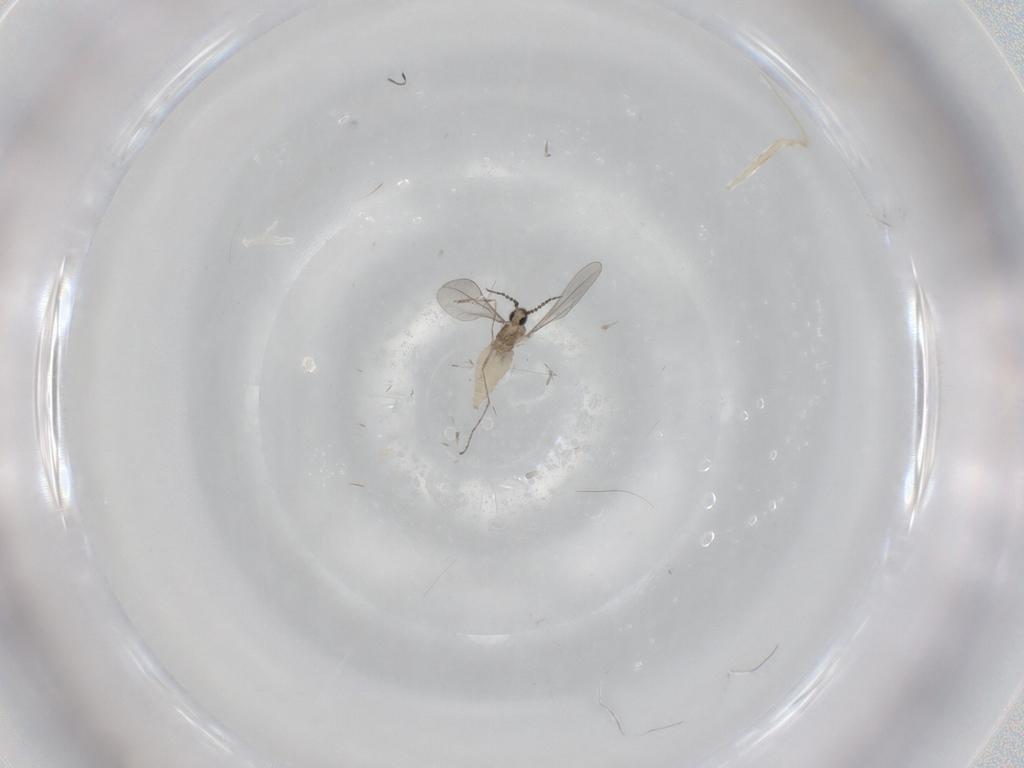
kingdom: Animalia
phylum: Arthropoda
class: Insecta
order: Diptera
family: Cecidomyiidae
